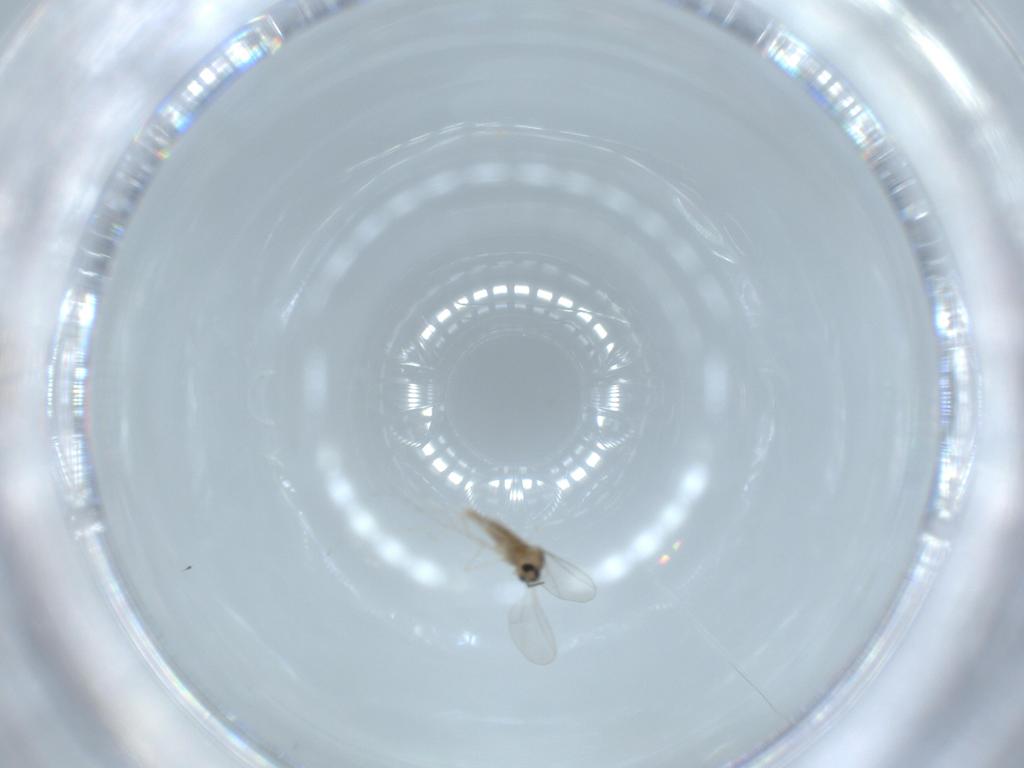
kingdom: Animalia
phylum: Arthropoda
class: Insecta
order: Diptera
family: Cecidomyiidae
